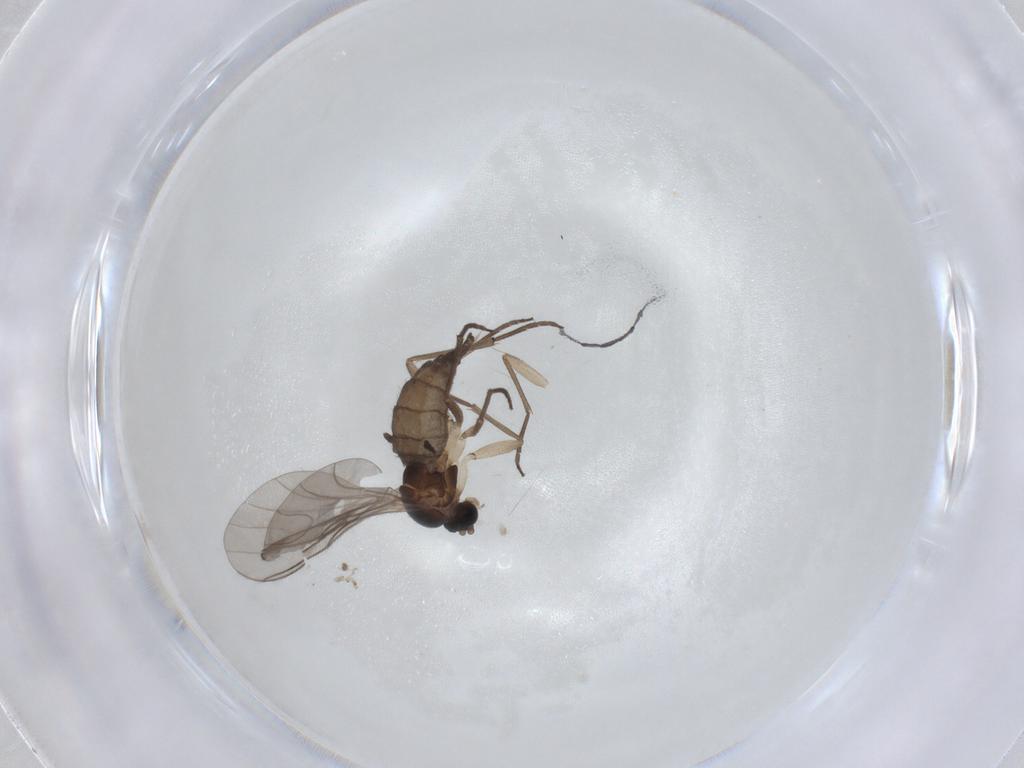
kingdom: Animalia
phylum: Arthropoda
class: Insecta
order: Diptera
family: Sciaridae
